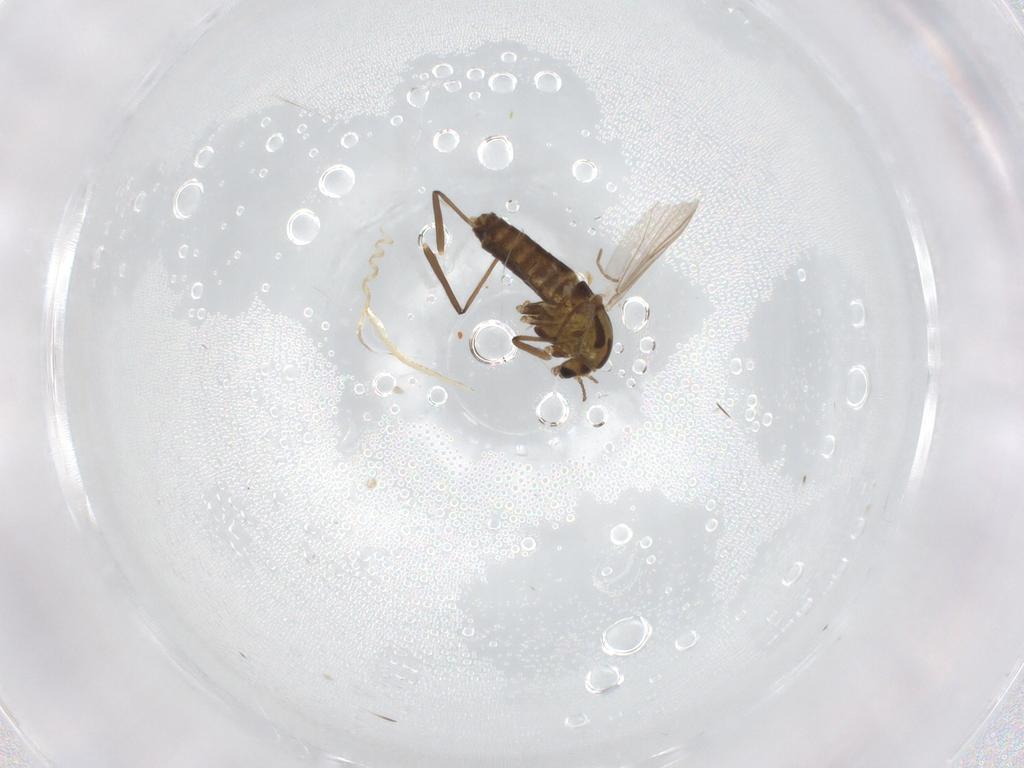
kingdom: Animalia
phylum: Arthropoda
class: Insecta
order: Diptera
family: Chironomidae
